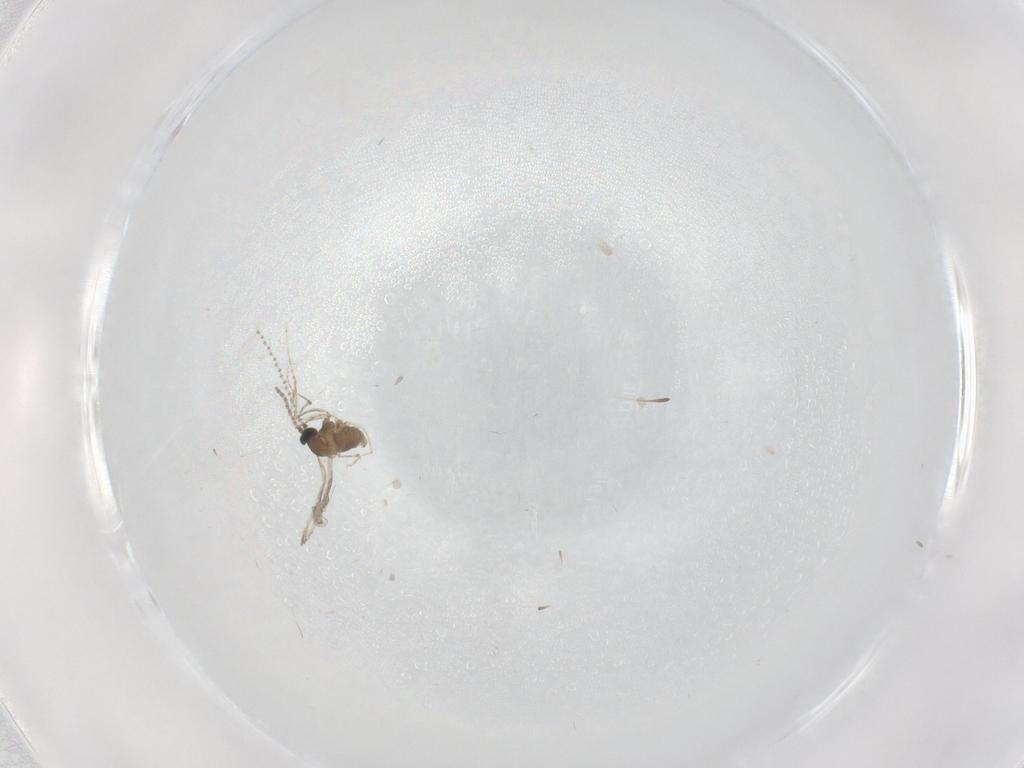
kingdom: Animalia
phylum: Arthropoda
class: Insecta
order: Diptera
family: Cecidomyiidae
